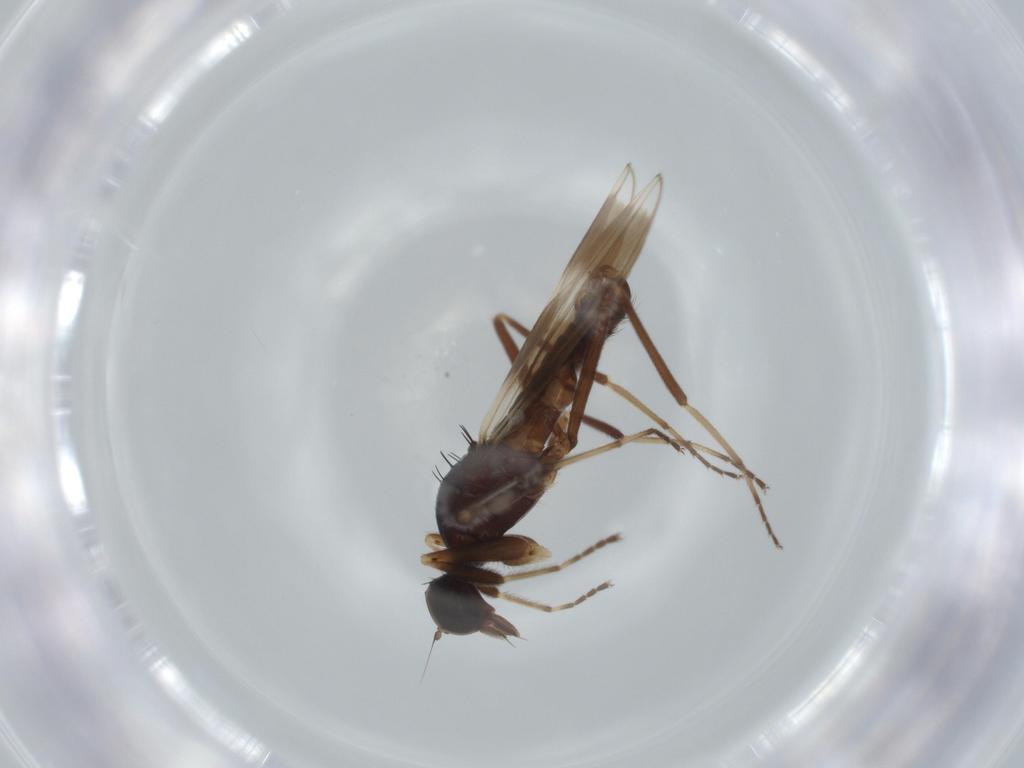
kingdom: Animalia
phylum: Arthropoda
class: Insecta
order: Diptera
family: Hybotidae
